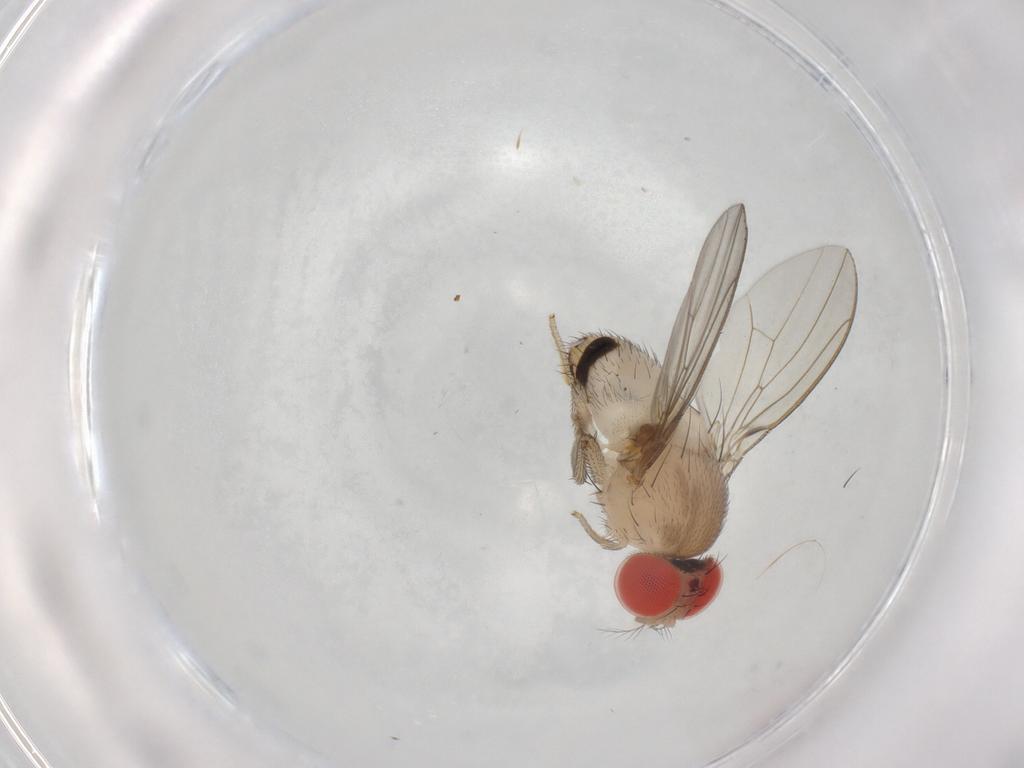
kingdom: Animalia
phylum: Arthropoda
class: Insecta
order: Diptera
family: Drosophilidae
